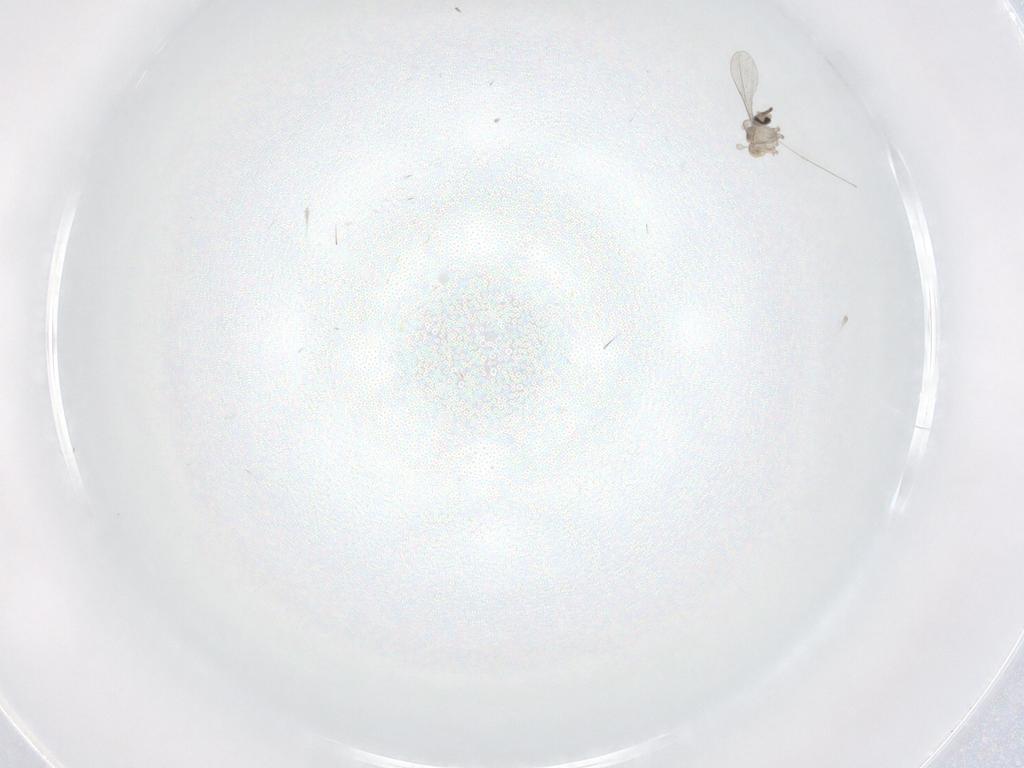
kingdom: Animalia
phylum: Arthropoda
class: Insecta
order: Diptera
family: Cecidomyiidae
